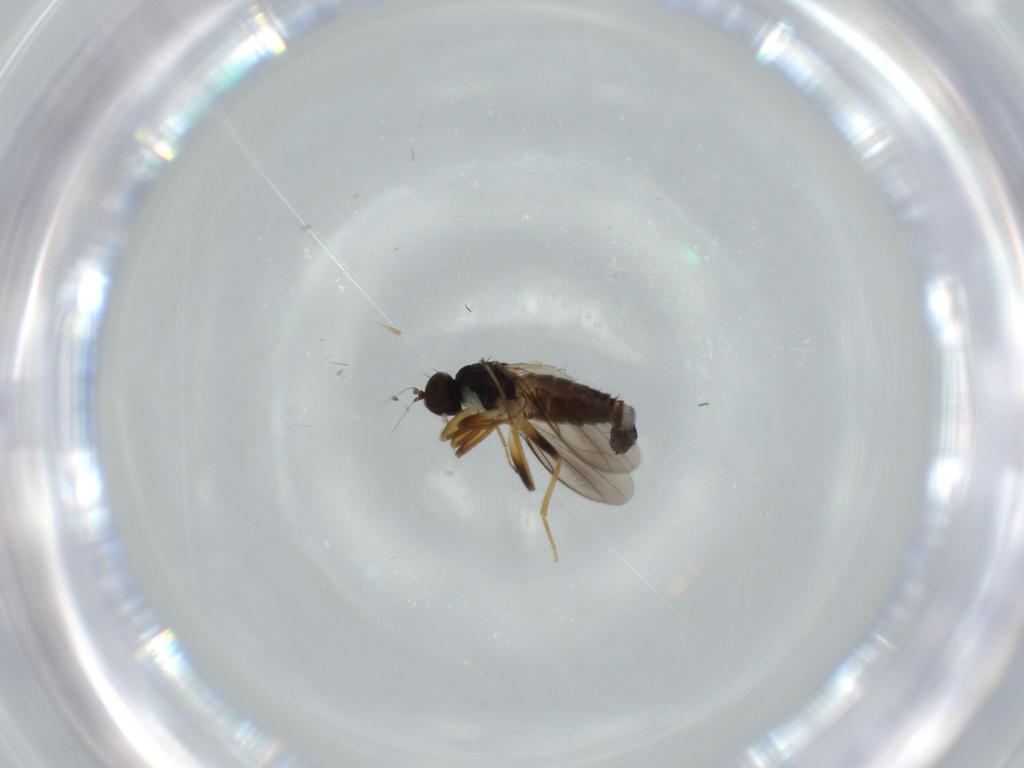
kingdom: Animalia
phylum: Arthropoda
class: Insecta
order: Diptera
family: Hybotidae
